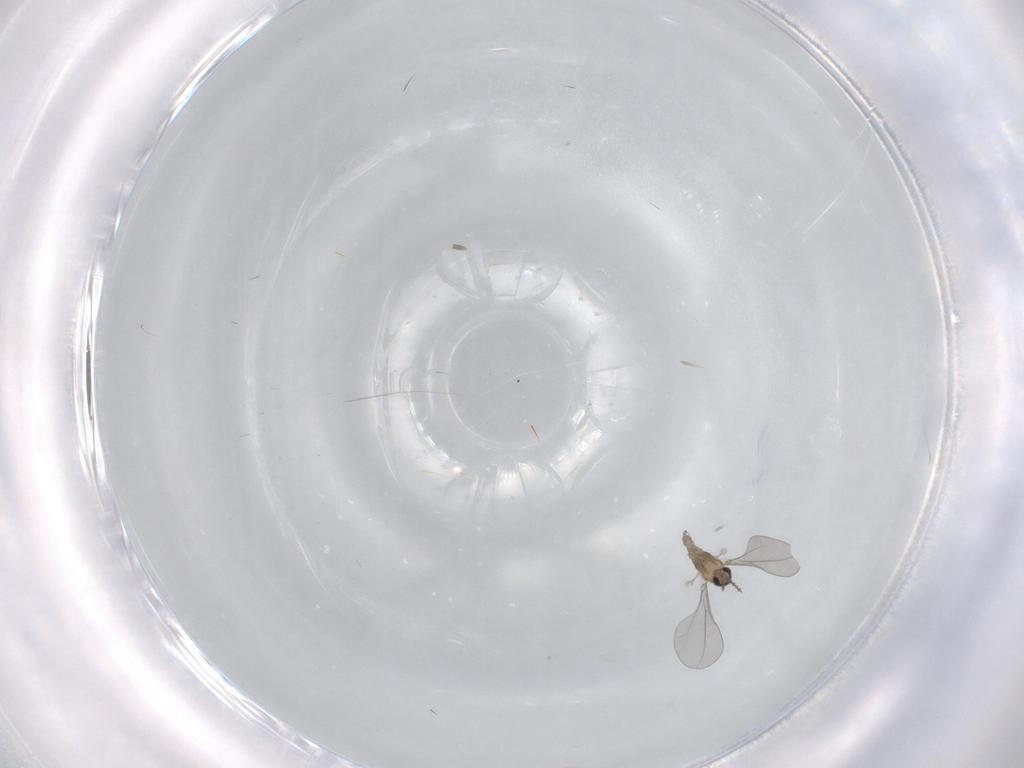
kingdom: Animalia
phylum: Arthropoda
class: Insecta
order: Diptera
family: Cecidomyiidae
